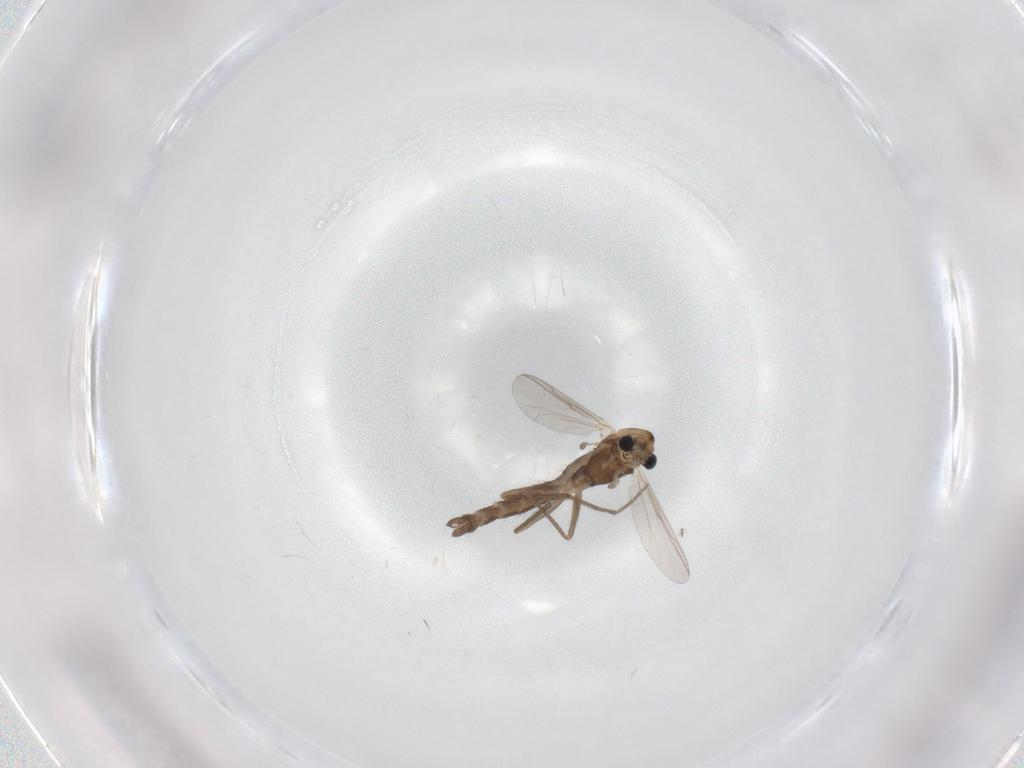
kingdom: Animalia
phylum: Arthropoda
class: Insecta
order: Diptera
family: Chironomidae
